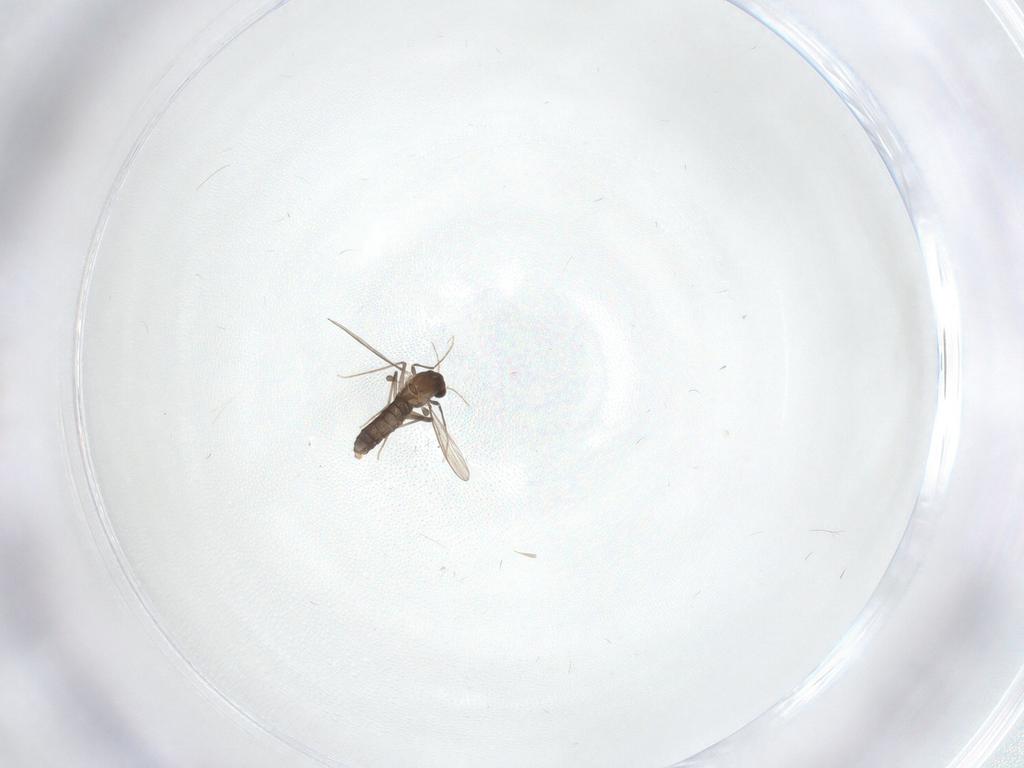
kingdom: Animalia
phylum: Arthropoda
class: Insecta
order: Diptera
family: Chironomidae
